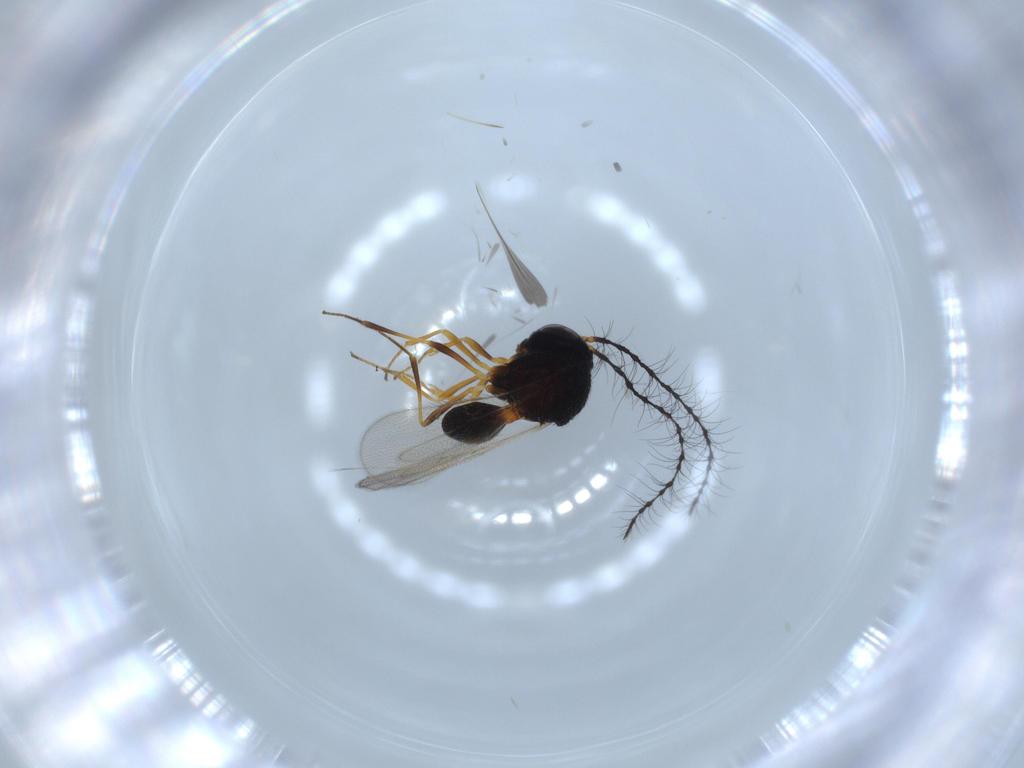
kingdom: Animalia
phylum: Arthropoda
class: Insecta
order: Hymenoptera
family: Scelionidae
